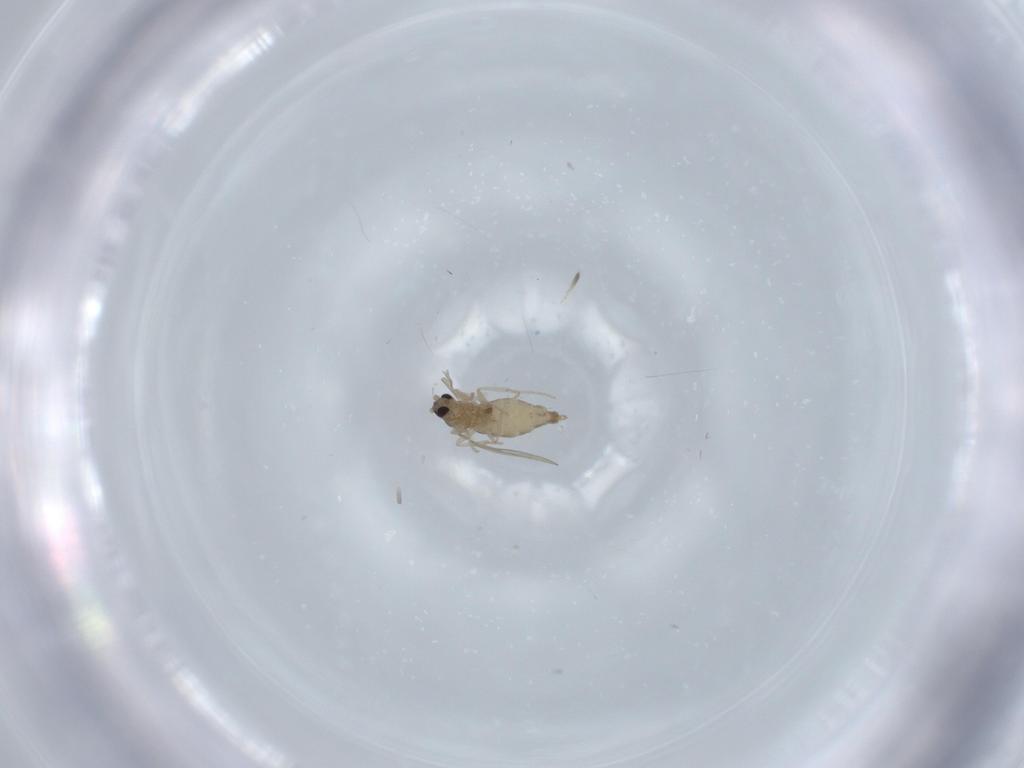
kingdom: Animalia
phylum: Arthropoda
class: Insecta
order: Diptera
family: Cecidomyiidae
